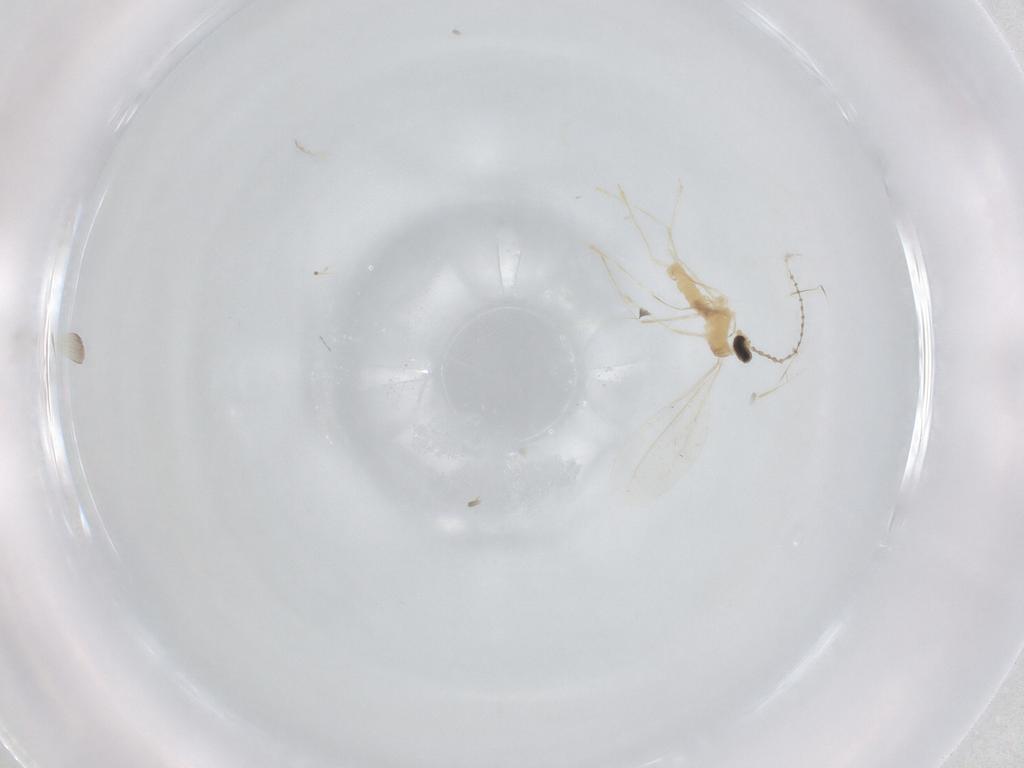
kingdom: Animalia
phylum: Arthropoda
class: Insecta
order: Diptera
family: Cecidomyiidae
